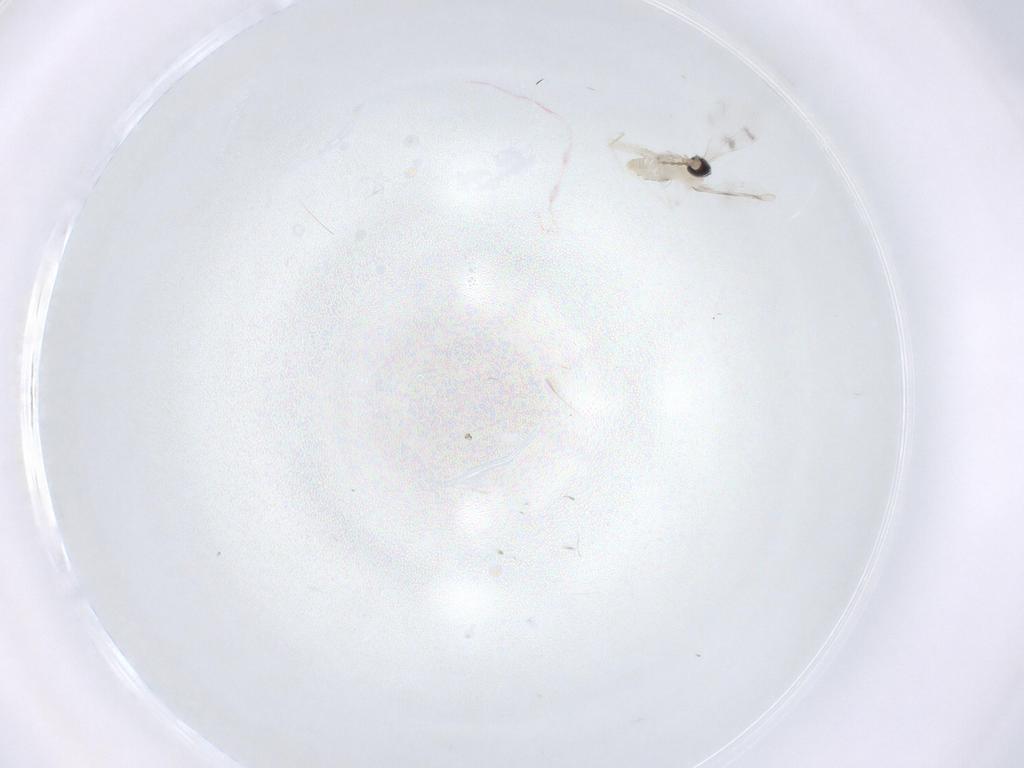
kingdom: Animalia
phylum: Arthropoda
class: Insecta
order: Diptera
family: Cecidomyiidae
